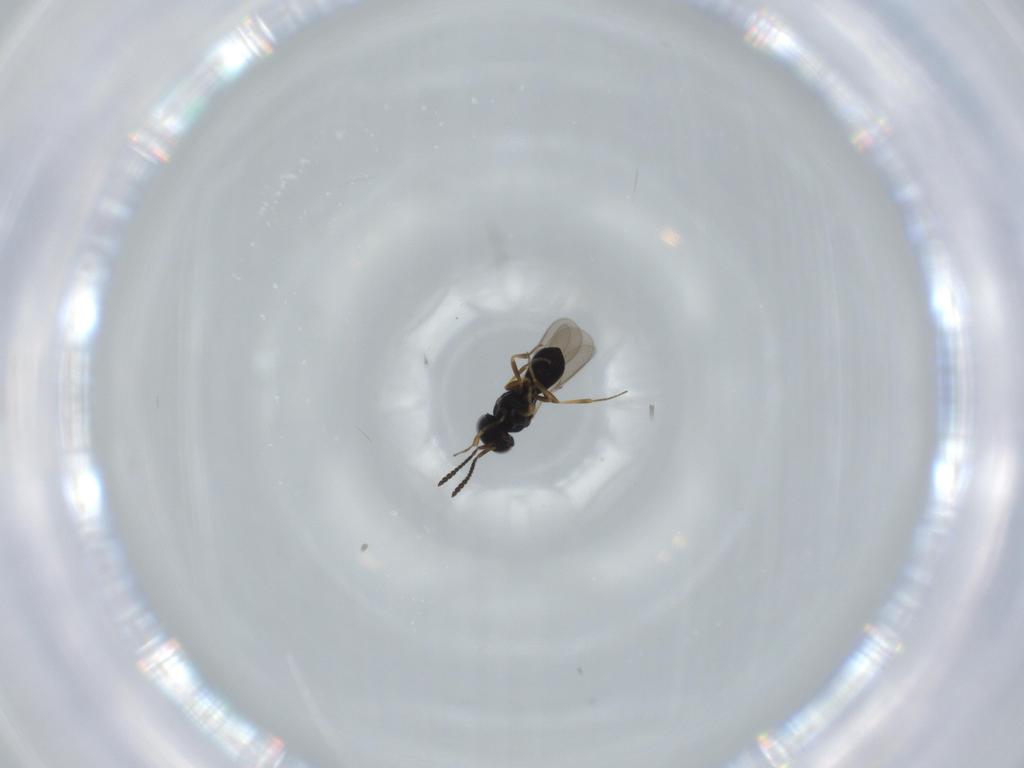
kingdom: Animalia
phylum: Arthropoda
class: Insecta
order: Hymenoptera
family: Scelionidae
